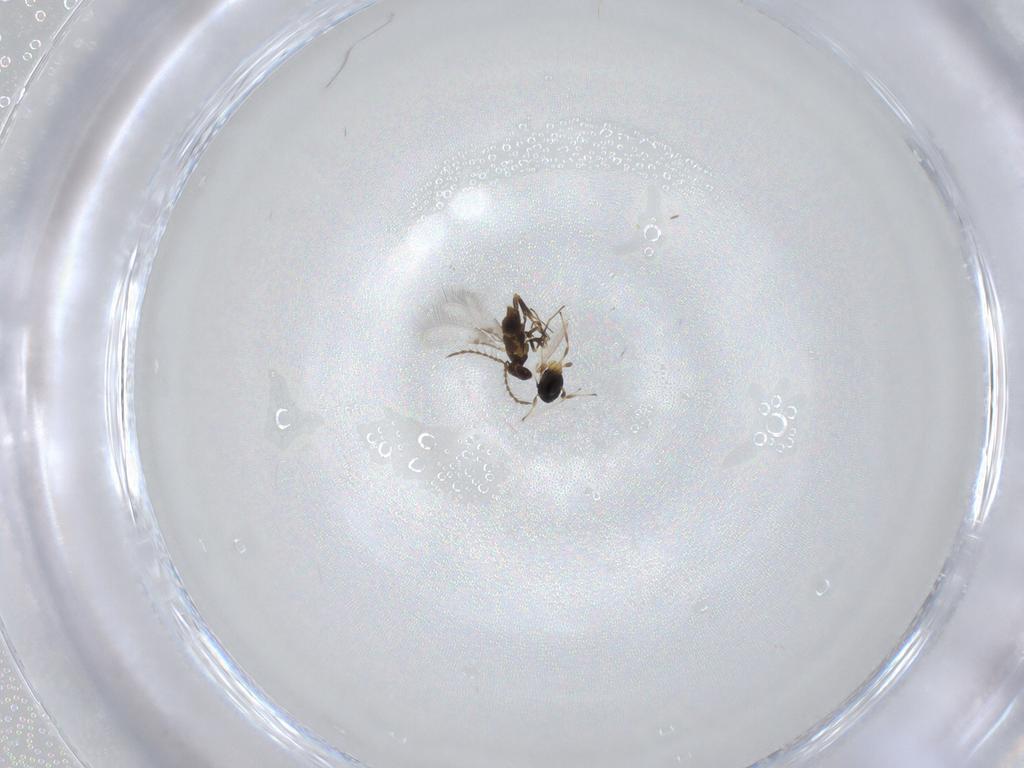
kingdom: Animalia
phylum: Arthropoda
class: Insecta
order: Hymenoptera
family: Scelionidae
